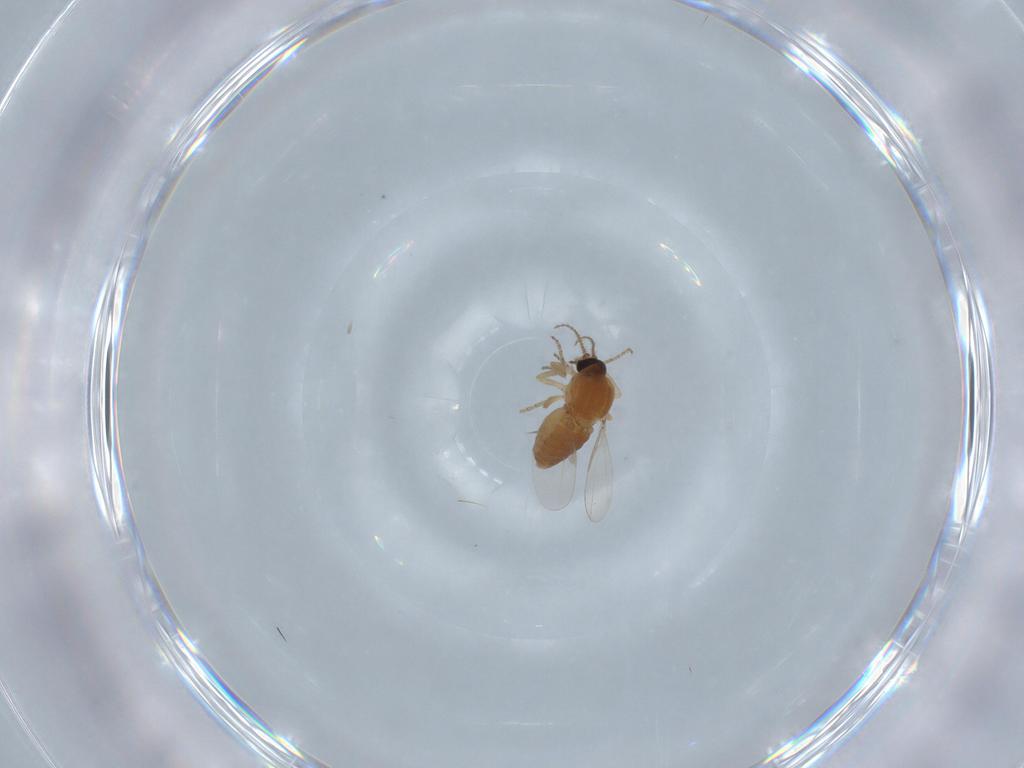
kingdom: Animalia
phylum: Arthropoda
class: Insecta
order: Diptera
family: Ceratopogonidae
